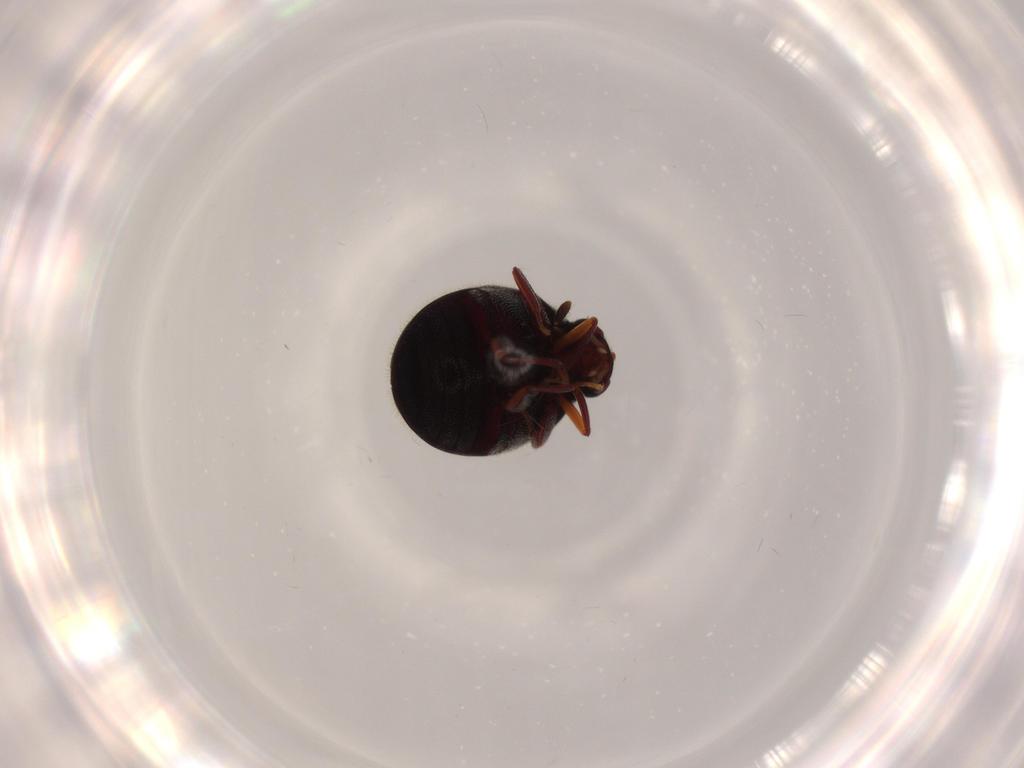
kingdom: Animalia
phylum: Arthropoda
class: Insecta
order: Coleoptera
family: Ptinidae
